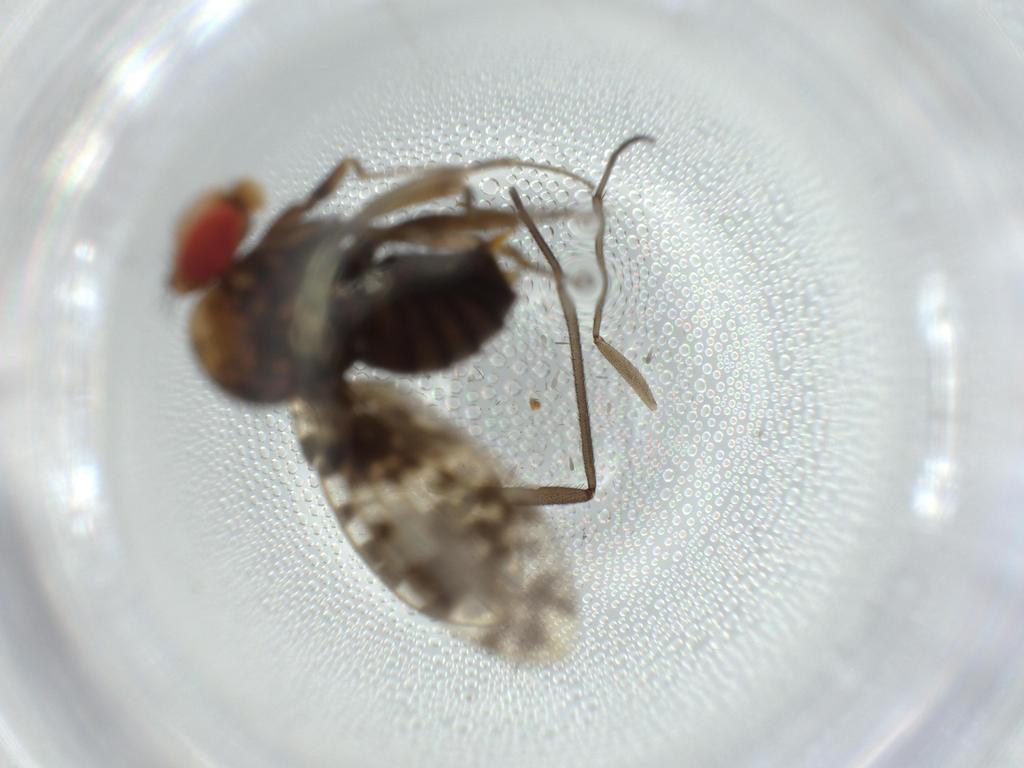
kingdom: Animalia
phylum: Arthropoda
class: Insecta
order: Diptera
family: Drosophilidae
